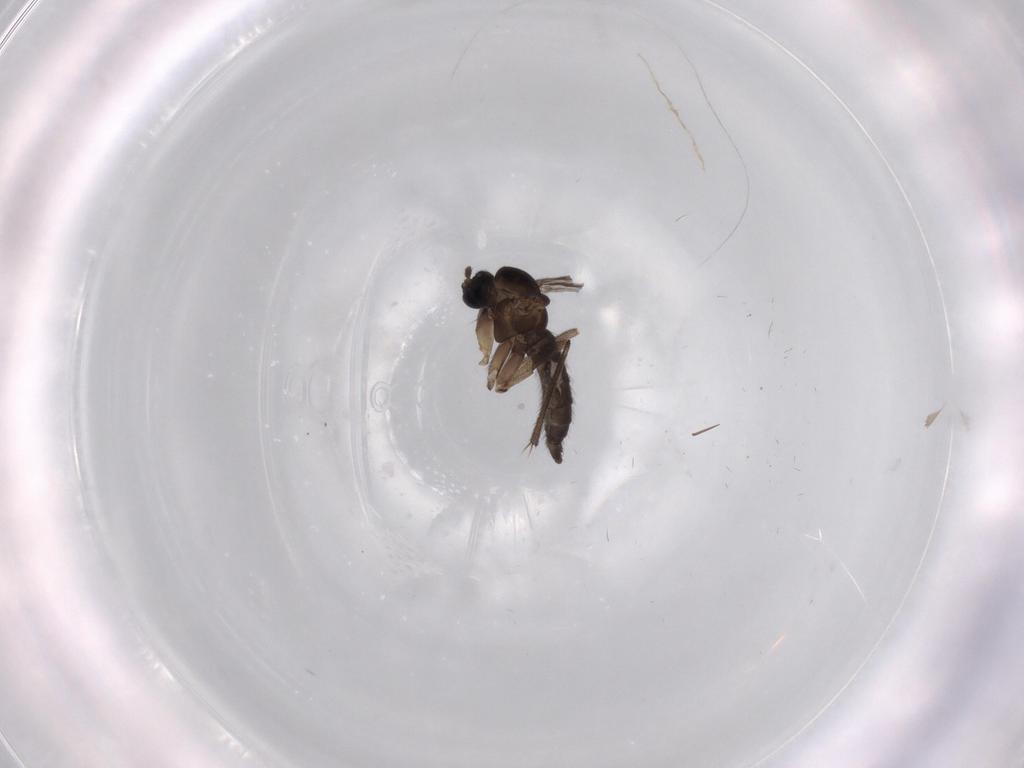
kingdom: Animalia
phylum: Arthropoda
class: Insecta
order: Diptera
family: Sciaridae
